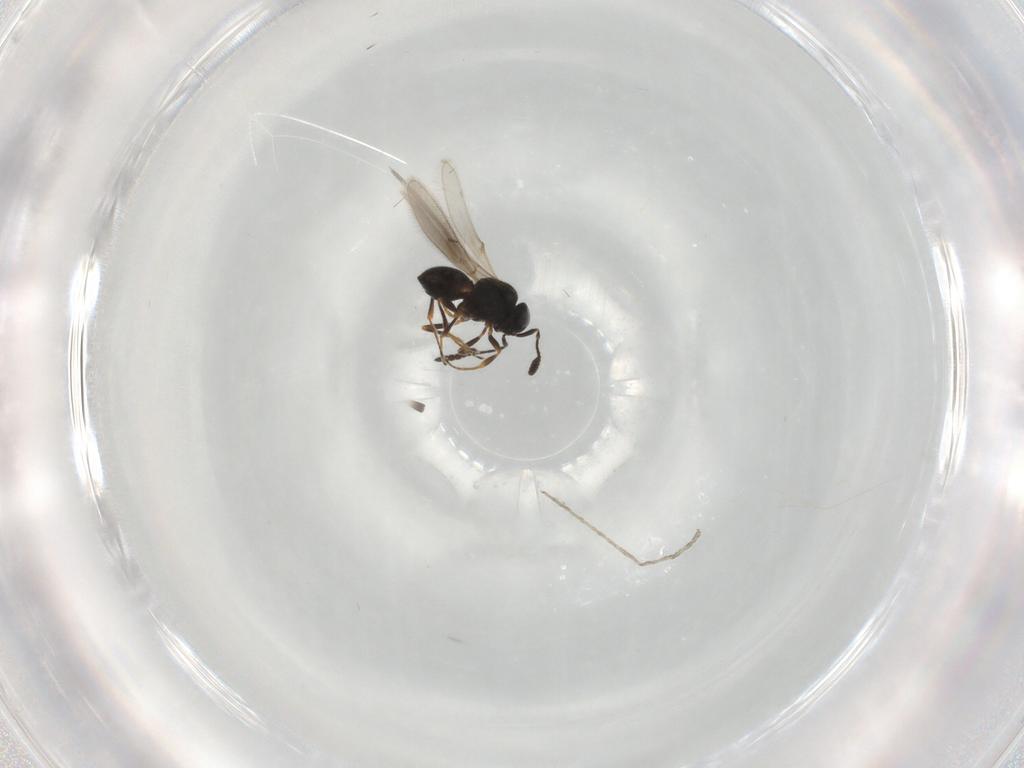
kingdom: Animalia
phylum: Arthropoda
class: Insecta
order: Hymenoptera
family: Scelionidae
